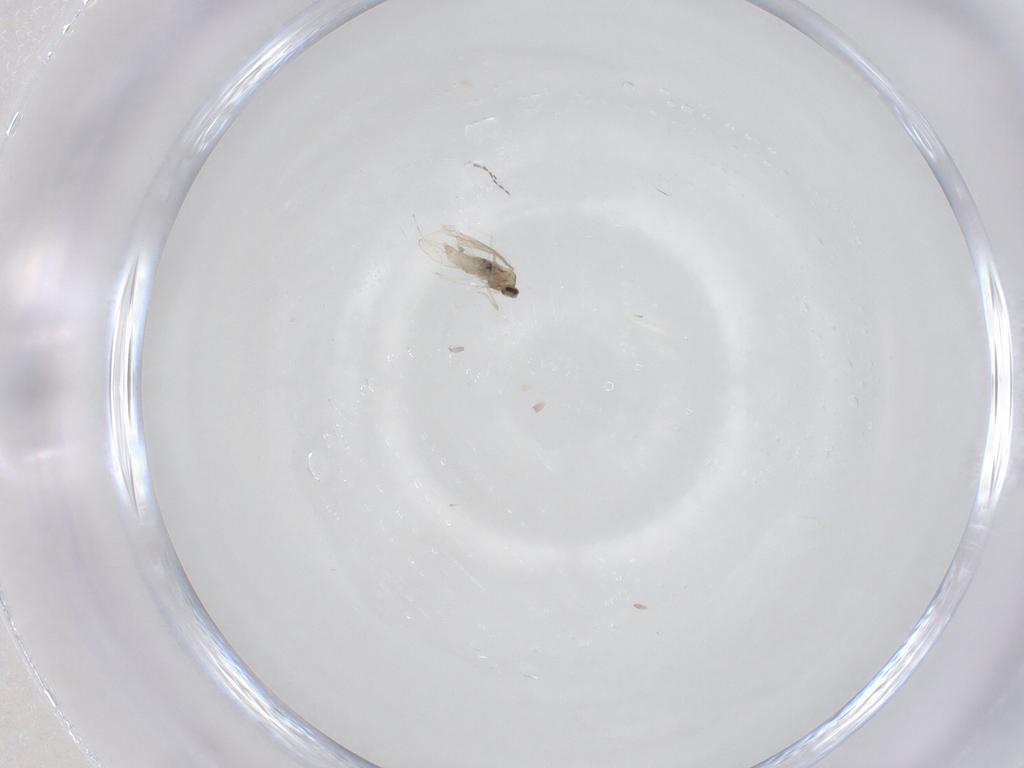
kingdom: Animalia
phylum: Arthropoda
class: Insecta
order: Diptera
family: Psychodidae
